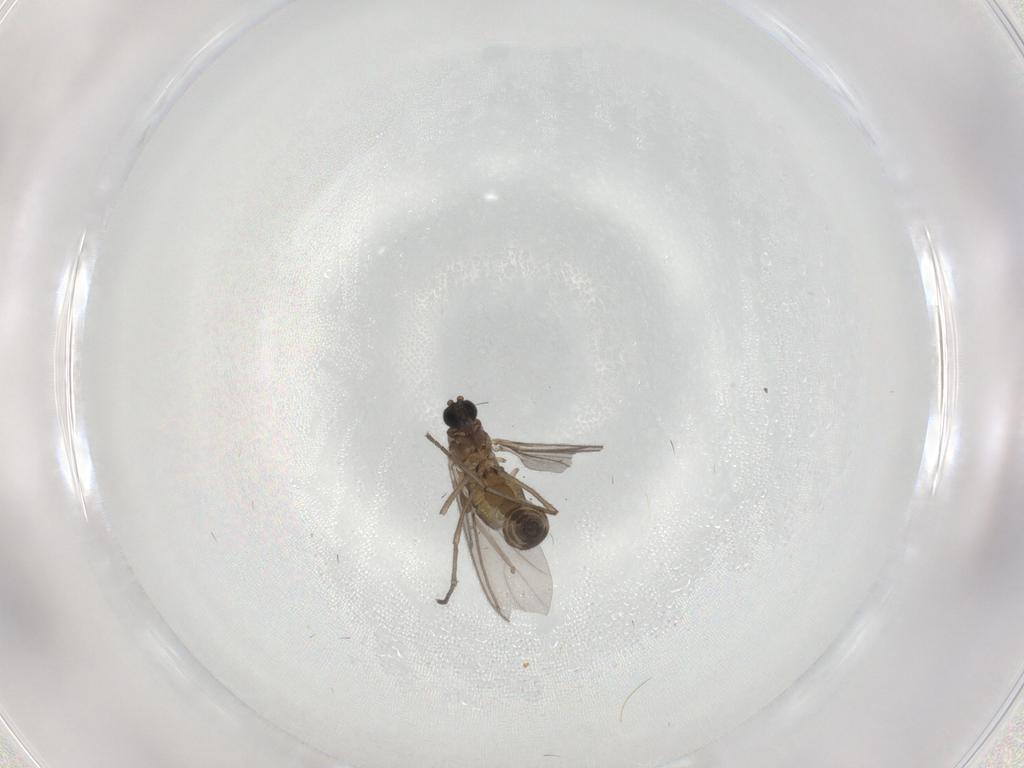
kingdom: Animalia
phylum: Arthropoda
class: Insecta
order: Diptera
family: Sciaridae
